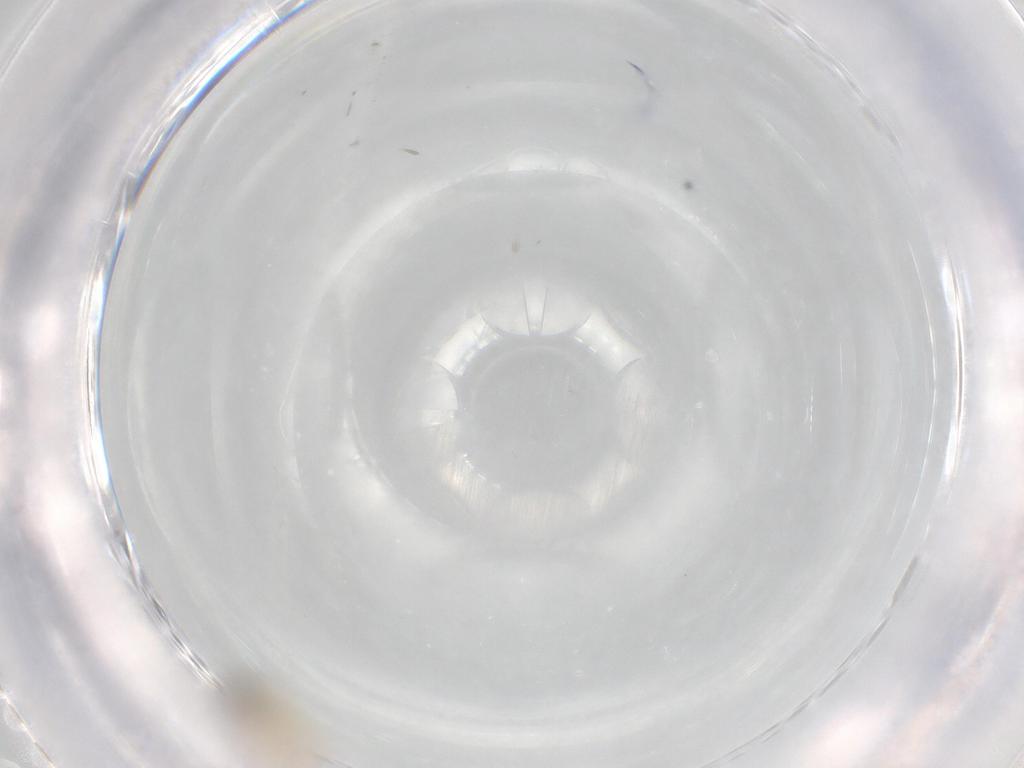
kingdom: Animalia
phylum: Arthropoda
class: Insecta
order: Diptera
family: Cecidomyiidae
